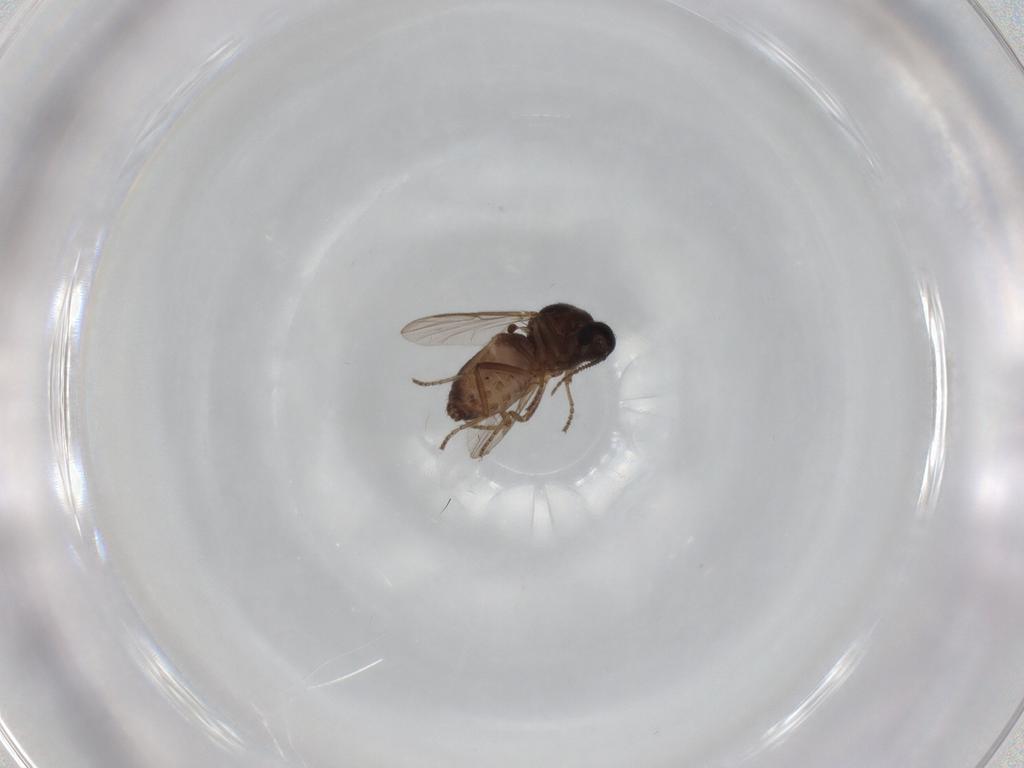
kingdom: Animalia
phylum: Arthropoda
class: Insecta
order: Diptera
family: Ceratopogonidae
